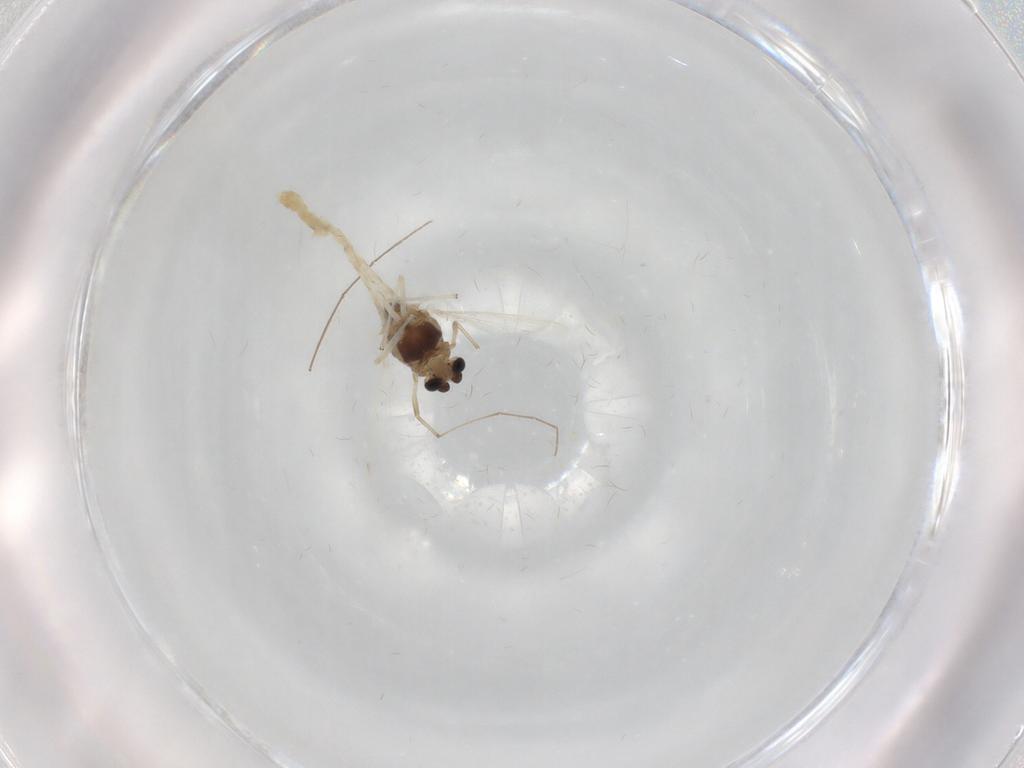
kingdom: Animalia
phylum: Arthropoda
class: Insecta
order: Diptera
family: Chironomidae
